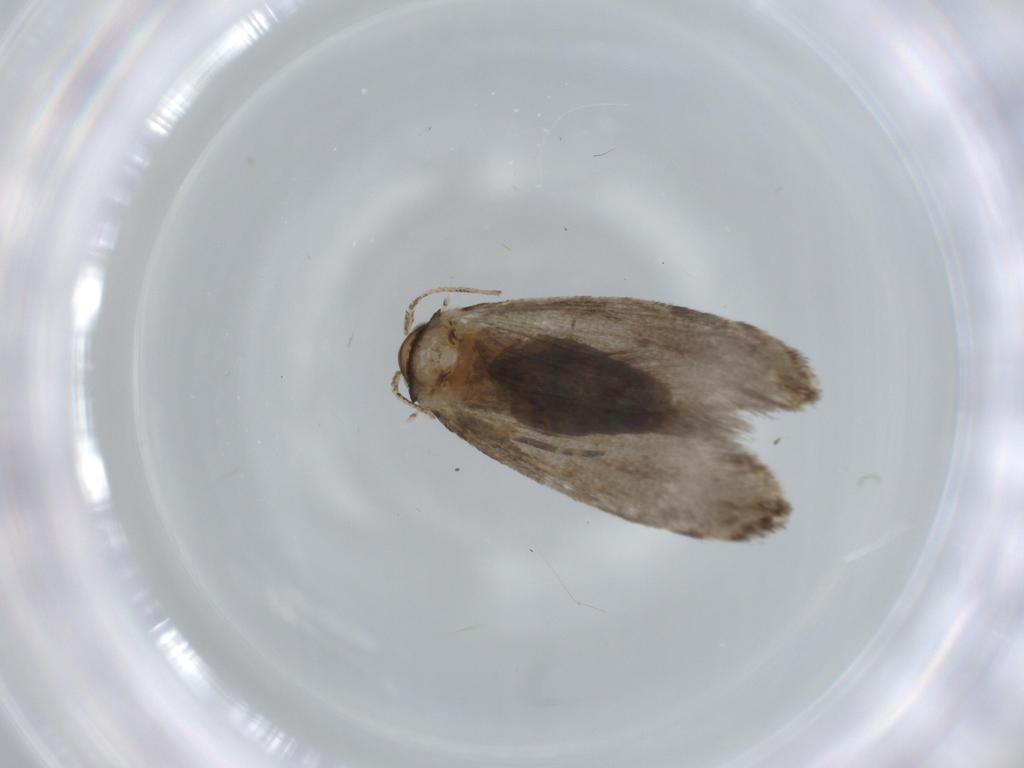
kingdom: Animalia
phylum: Arthropoda
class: Insecta
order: Lepidoptera
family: Tineidae
